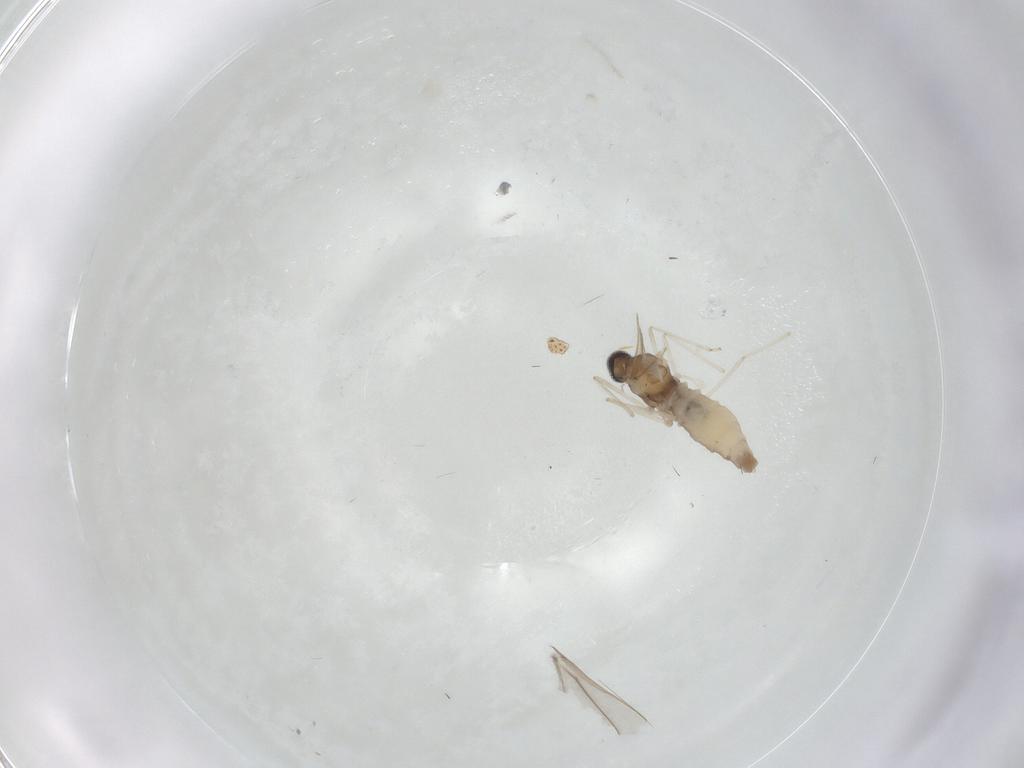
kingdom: Animalia
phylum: Arthropoda
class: Insecta
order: Diptera
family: Cecidomyiidae
